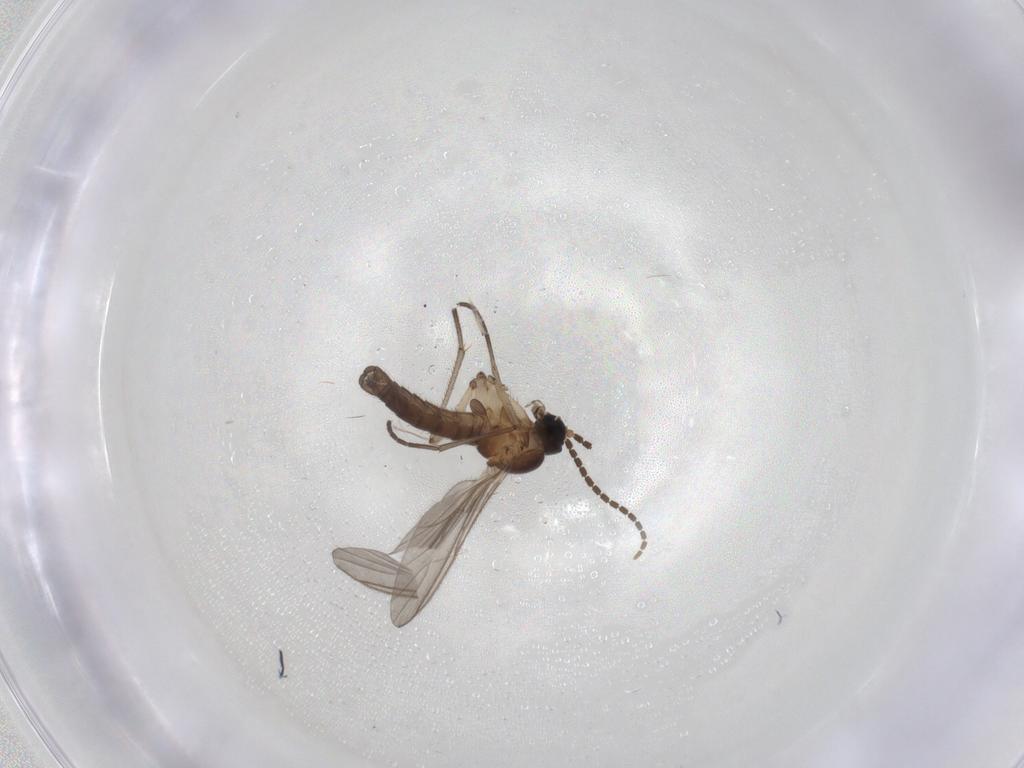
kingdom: Animalia
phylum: Arthropoda
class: Insecta
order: Diptera
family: Sciaridae
